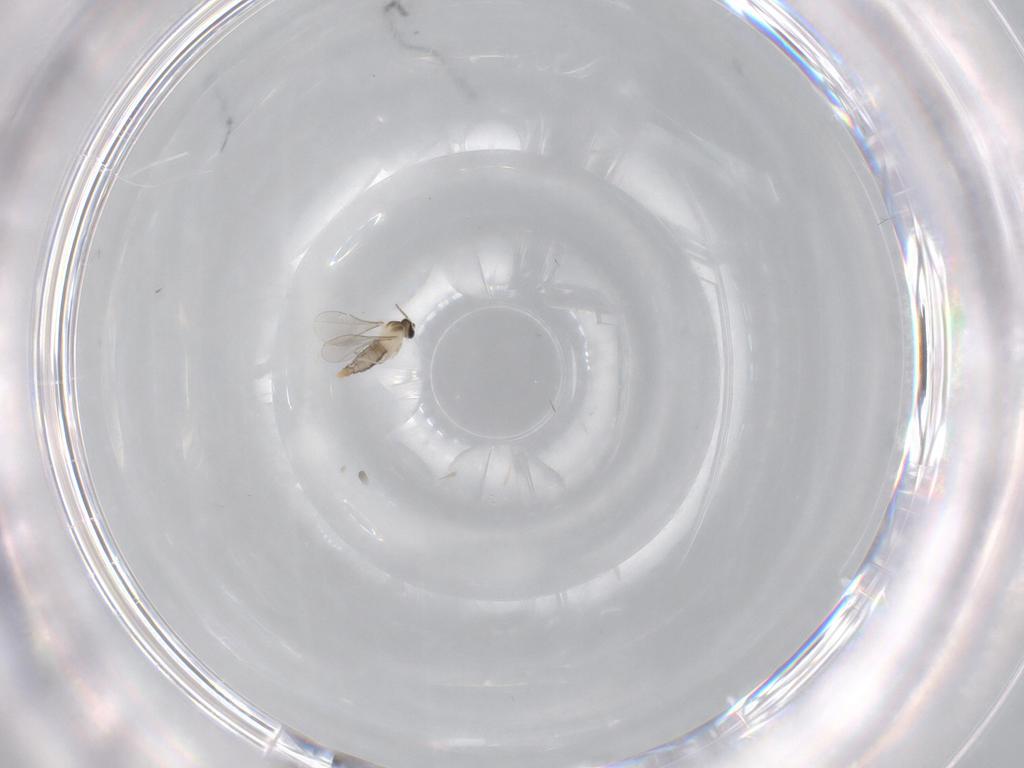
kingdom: Animalia
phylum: Arthropoda
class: Insecta
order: Diptera
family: Cecidomyiidae
